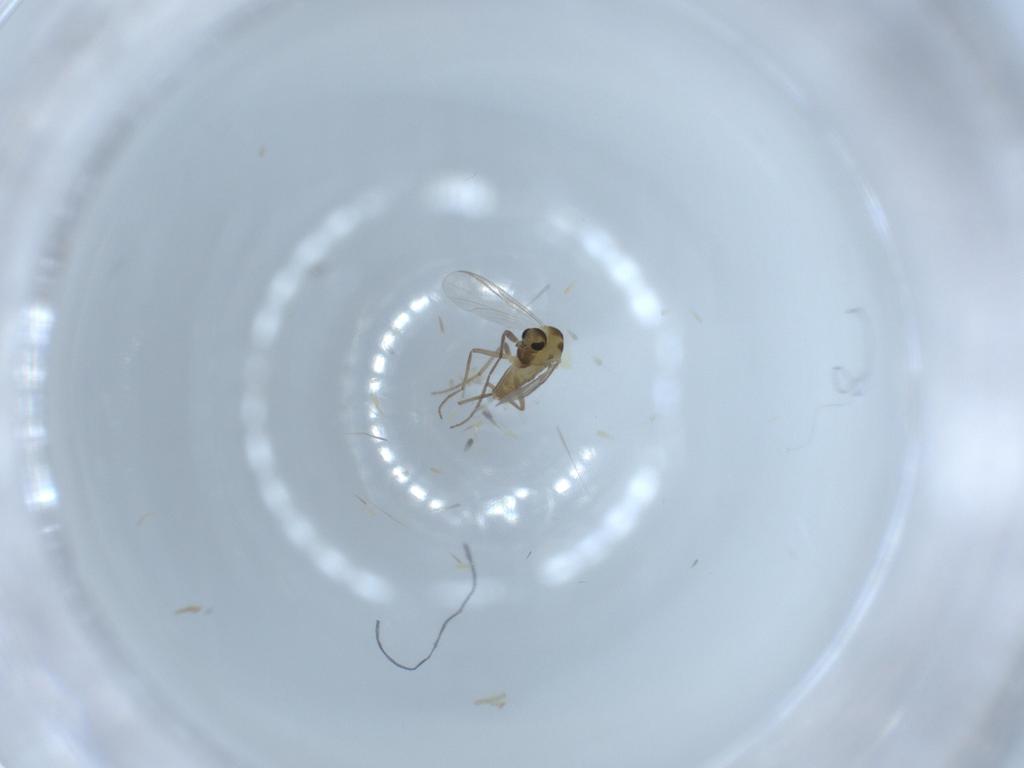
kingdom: Animalia
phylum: Arthropoda
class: Insecta
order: Diptera
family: Chironomidae
